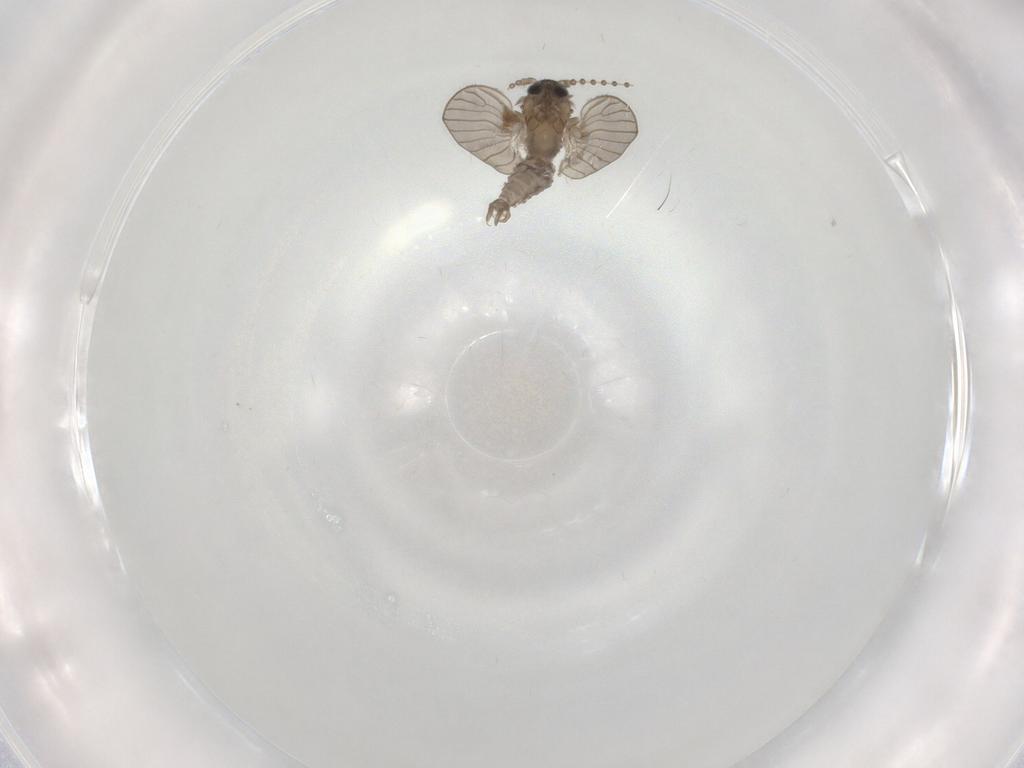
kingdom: Animalia
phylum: Arthropoda
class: Insecta
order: Diptera
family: Psychodidae
